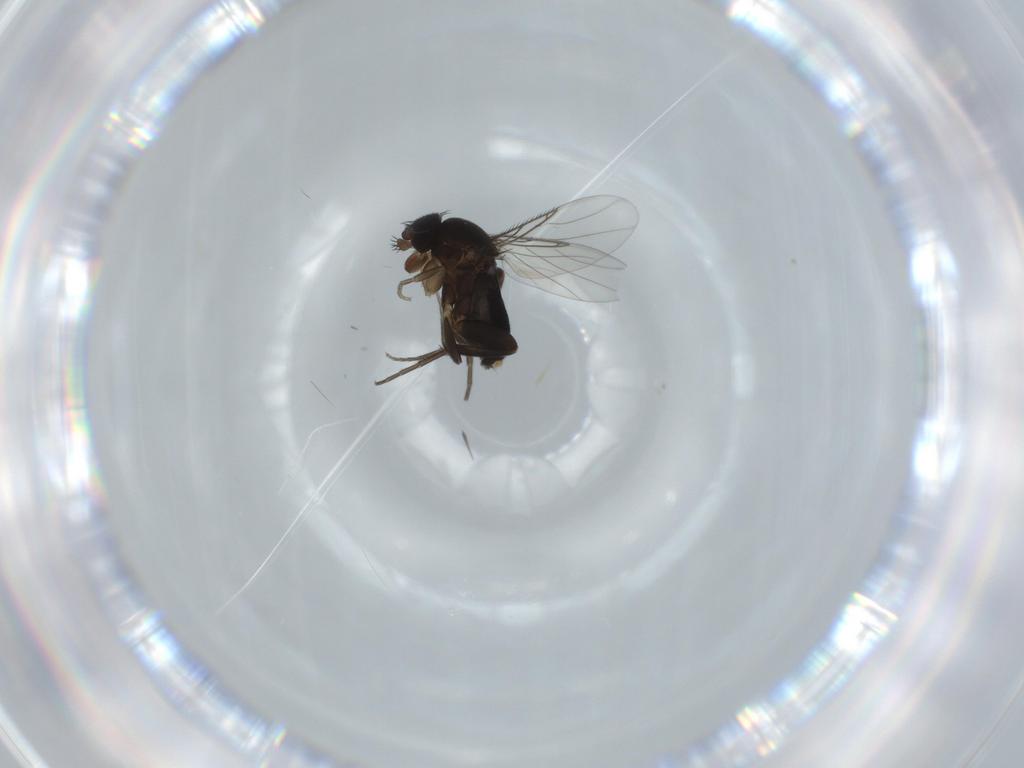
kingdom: Animalia
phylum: Arthropoda
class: Insecta
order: Diptera
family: Phoridae
